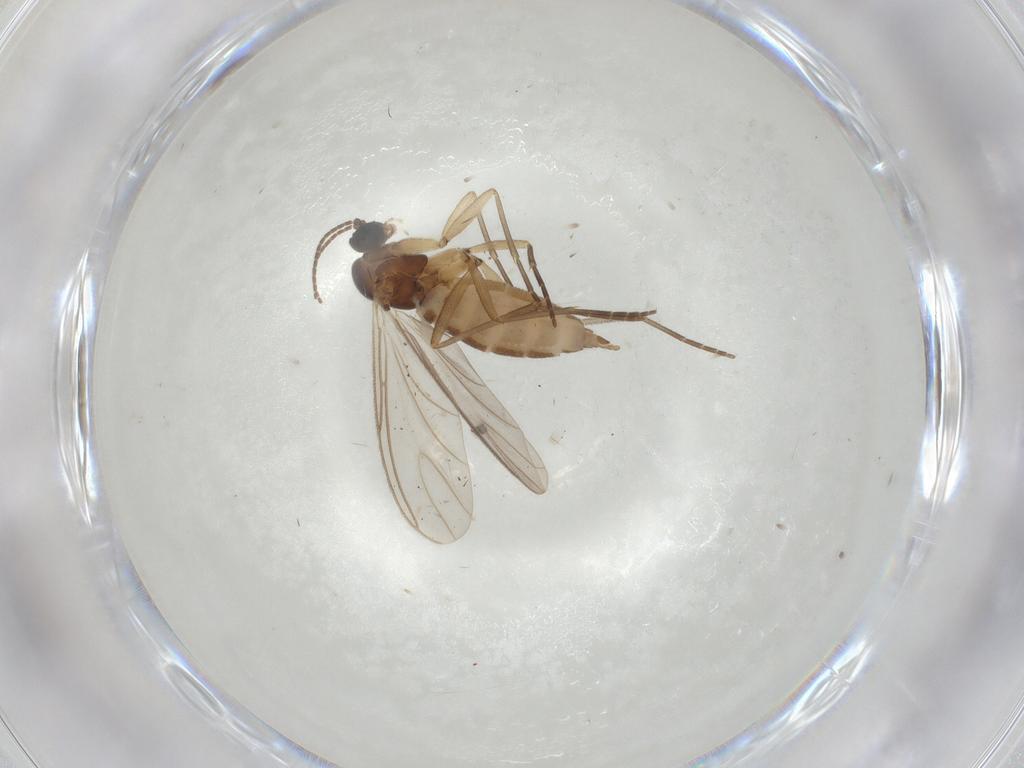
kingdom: Animalia
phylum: Arthropoda
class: Insecta
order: Diptera
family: Sciaridae
